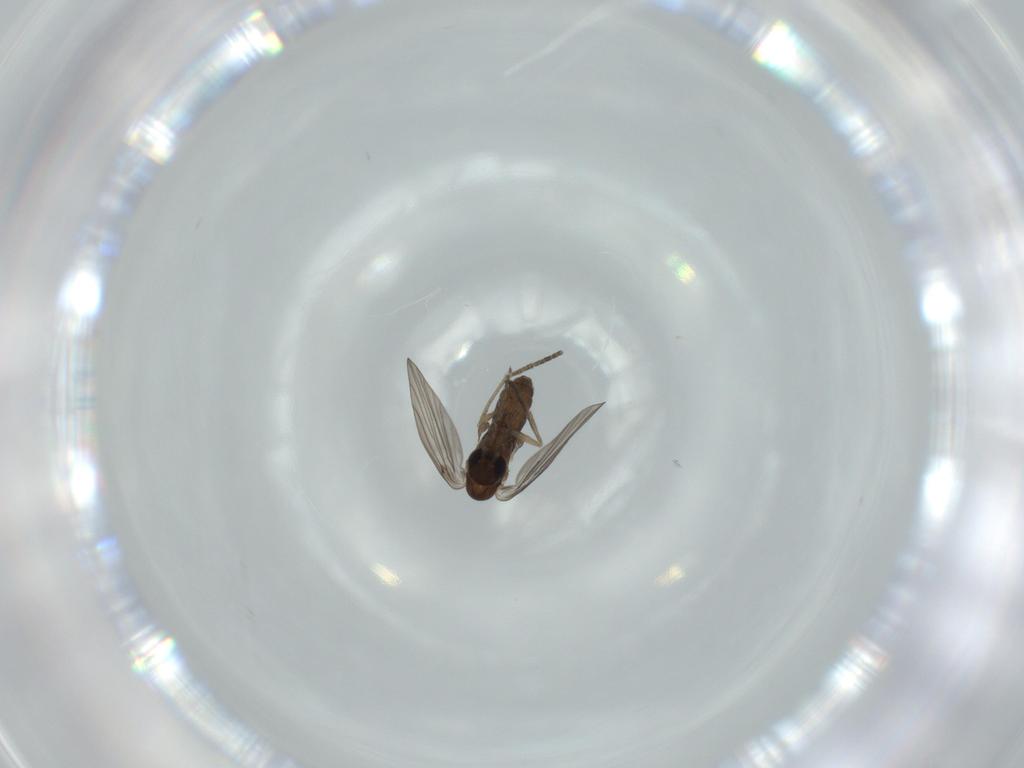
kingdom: Animalia
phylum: Arthropoda
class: Insecta
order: Diptera
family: Psychodidae
